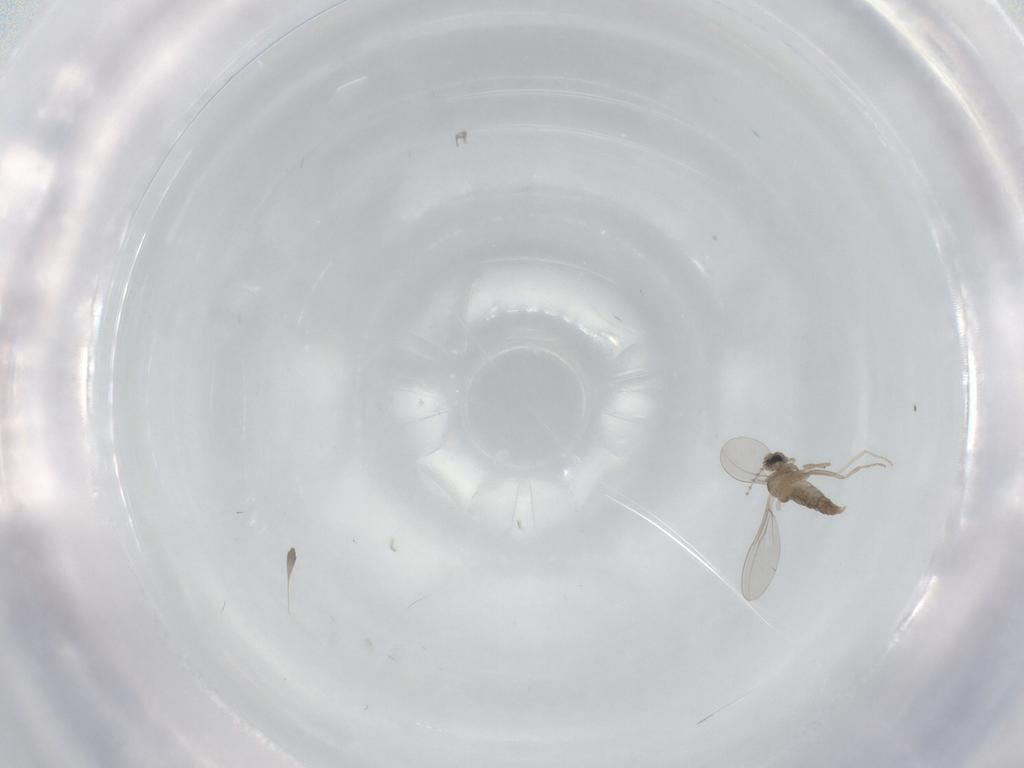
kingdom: Animalia
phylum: Arthropoda
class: Insecta
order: Diptera
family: Cecidomyiidae
